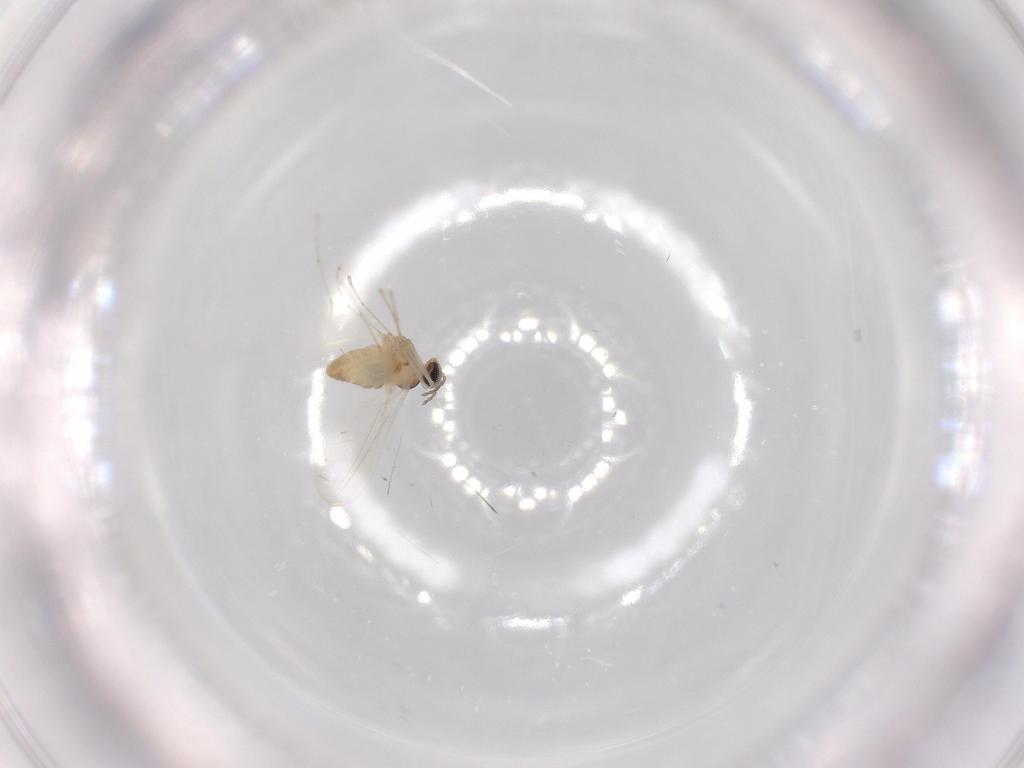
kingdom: Animalia
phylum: Arthropoda
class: Insecta
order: Diptera
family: Cecidomyiidae
